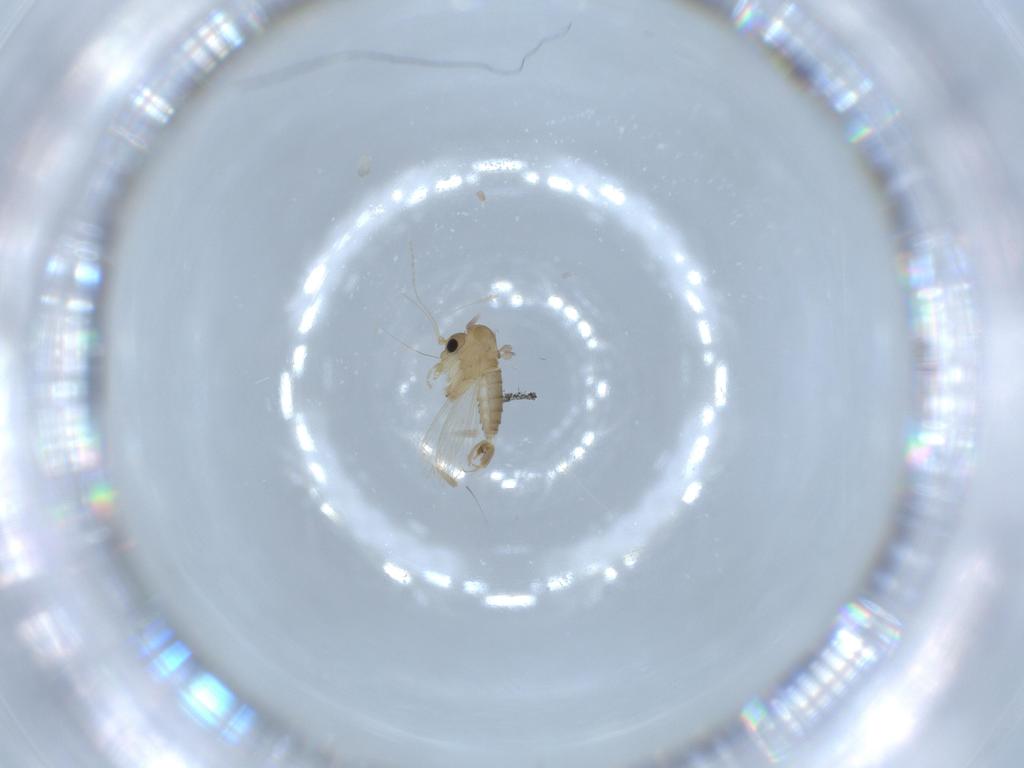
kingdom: Animalia
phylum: Arthropoda
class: Insecta
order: Diptera
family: Psychodidae
